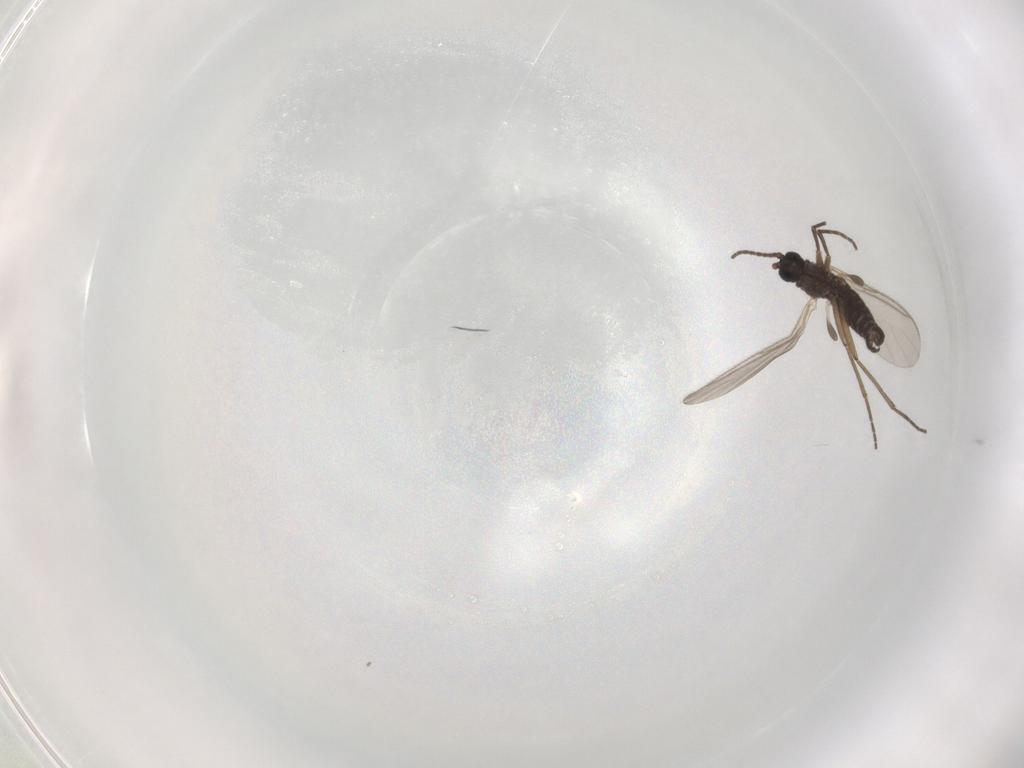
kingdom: Animalia
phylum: Arthropoda
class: Insecta
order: Diptera
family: Sciaridae
